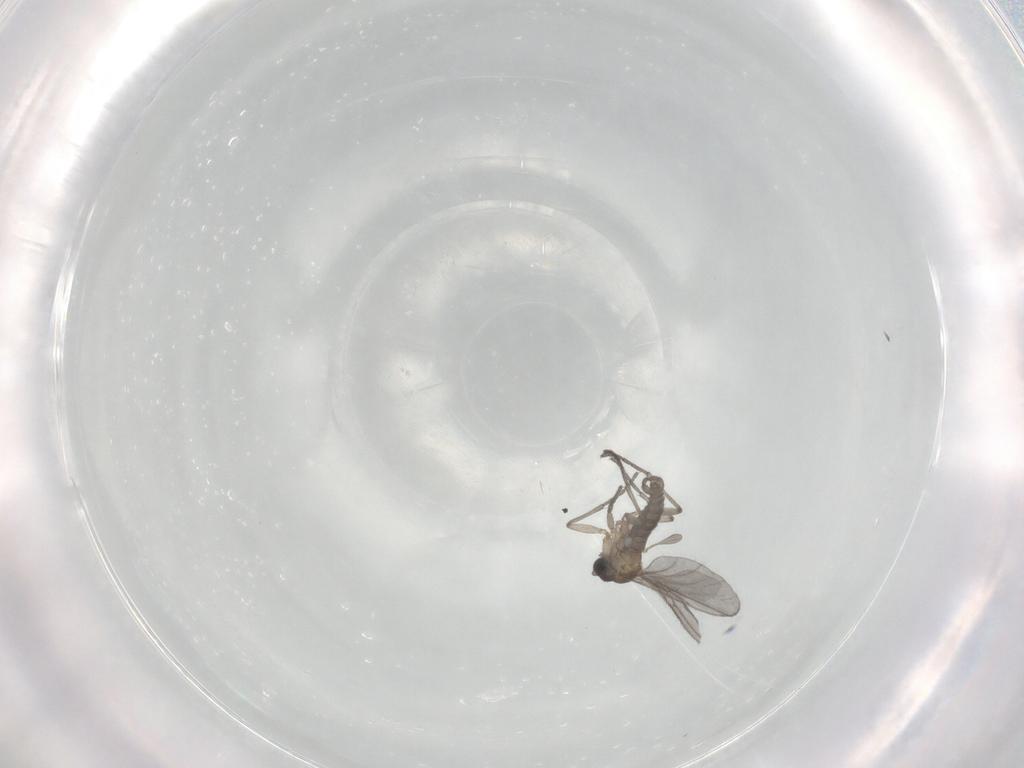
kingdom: Animalia
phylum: Arthropoda
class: Insecta
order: Diptera
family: Sciaridae
